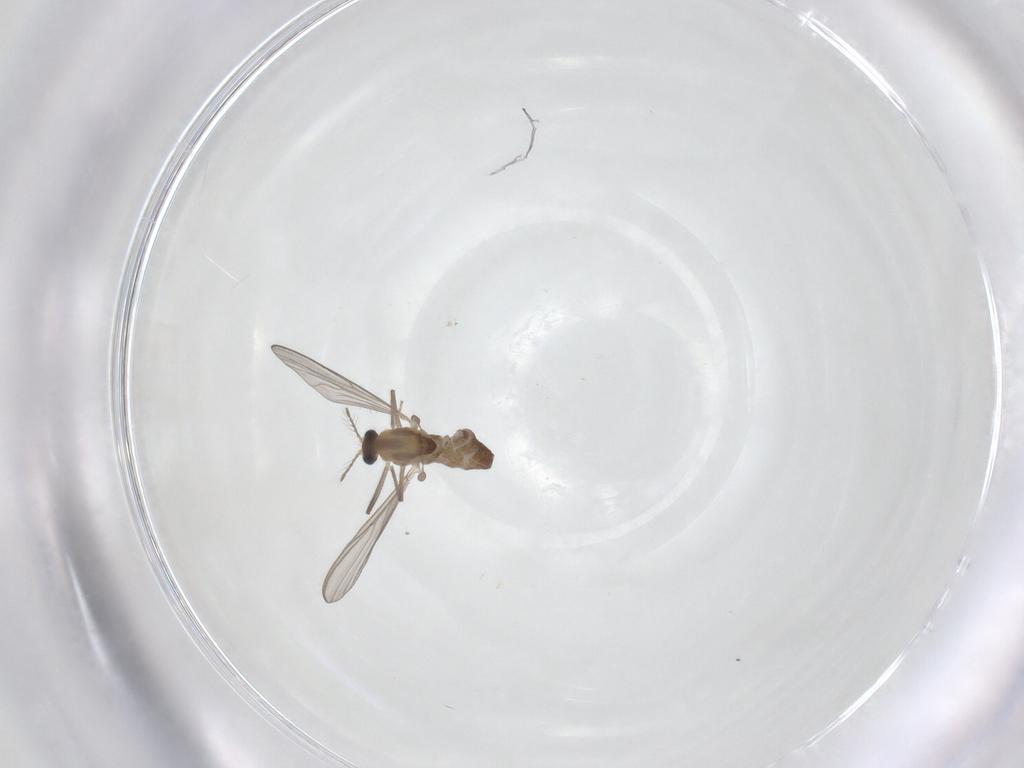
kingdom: Animalia
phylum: Arthropoda
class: Insecta
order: Diptera
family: Chironomidae
